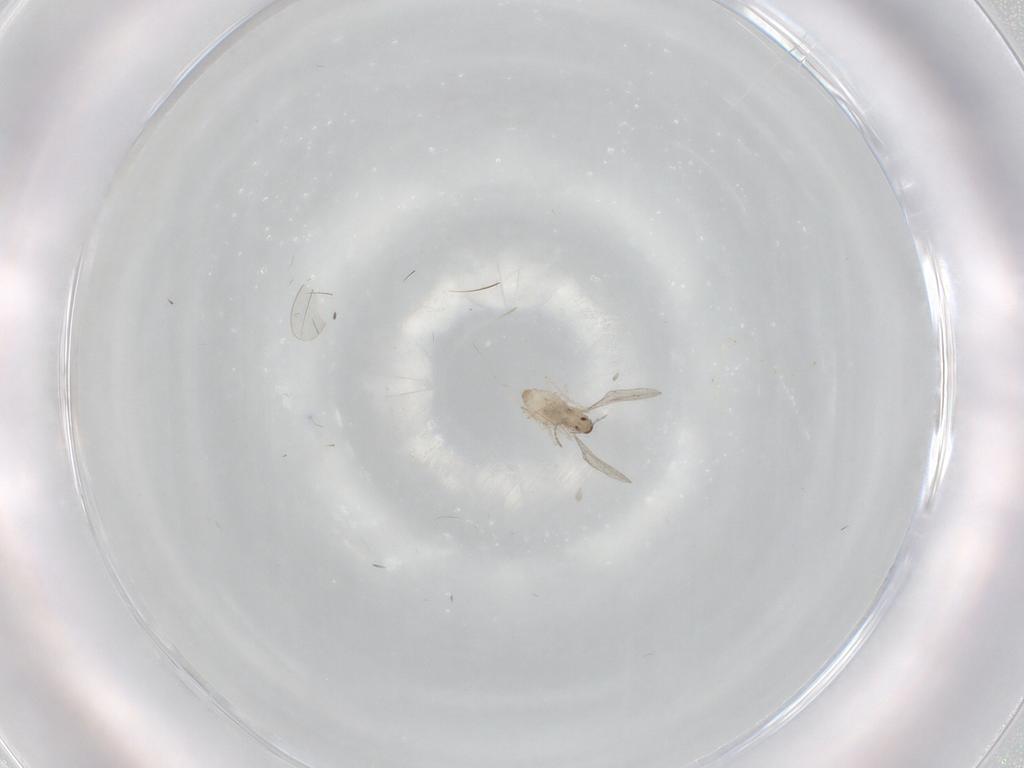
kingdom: Animalia
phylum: Arthropoda
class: Insecta
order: Diptera
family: Cecidomyiidae
